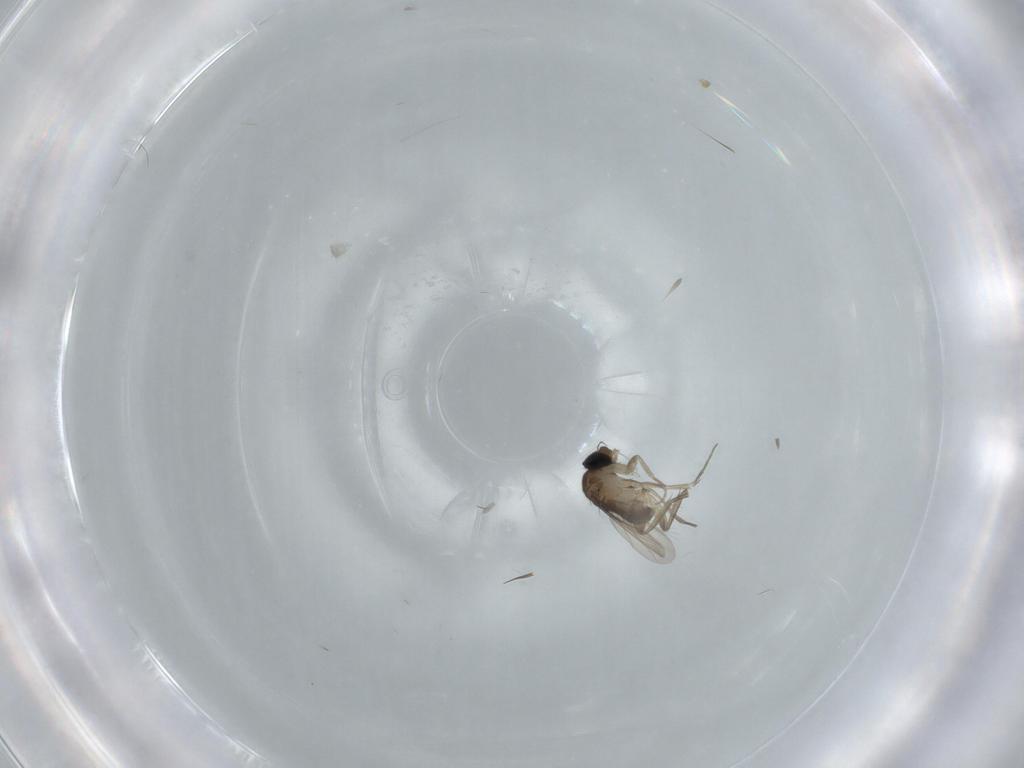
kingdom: Animalia
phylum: Arthropoda
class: Insecta
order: Diptera
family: Phoridae
